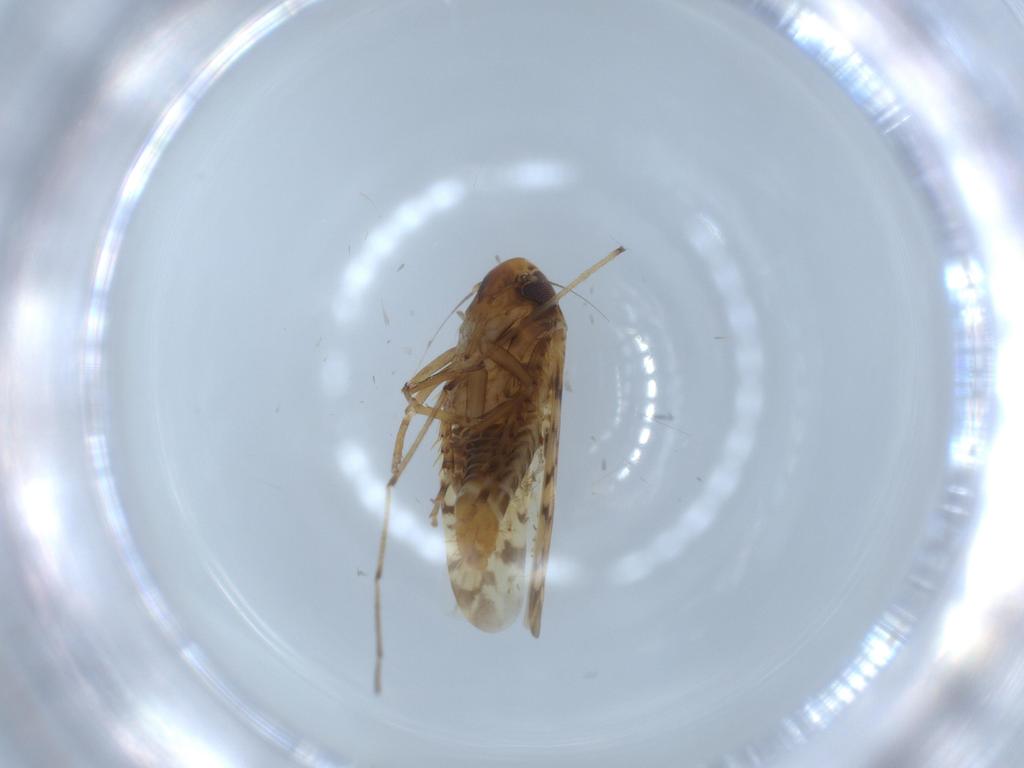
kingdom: Animalia
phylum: Arthropoda
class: Insecta
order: Hemiptera
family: Cicadellidae
